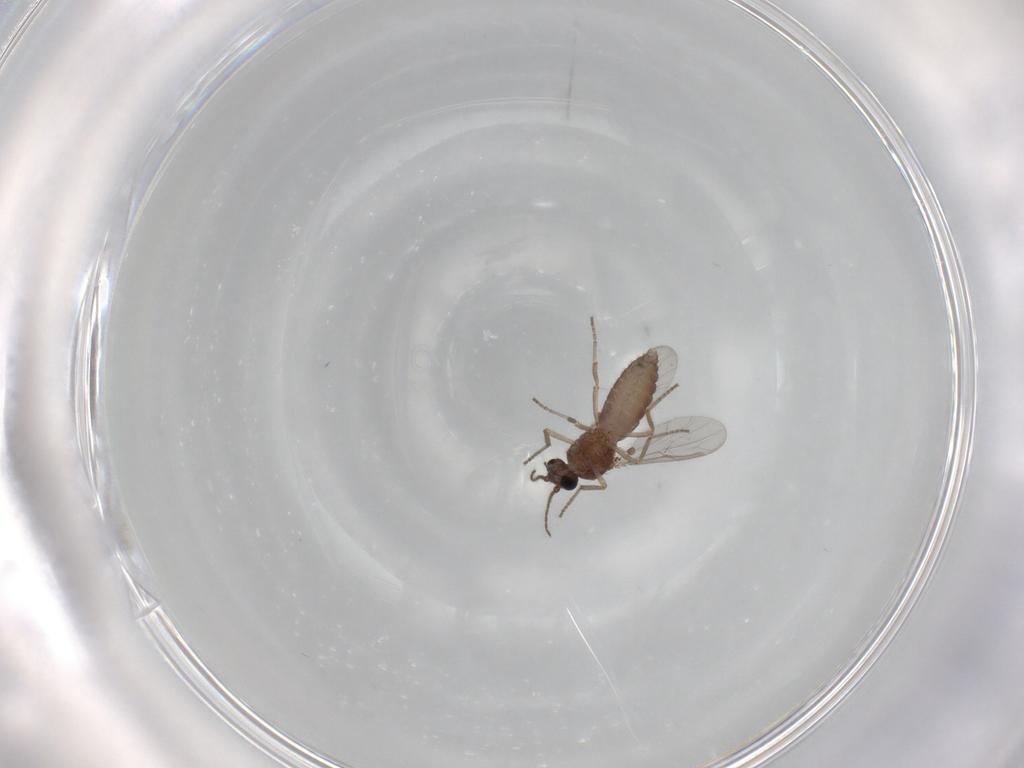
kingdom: Animalia
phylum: Arthropoda
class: Insecta
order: Diptera
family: Ceratopogonidae
